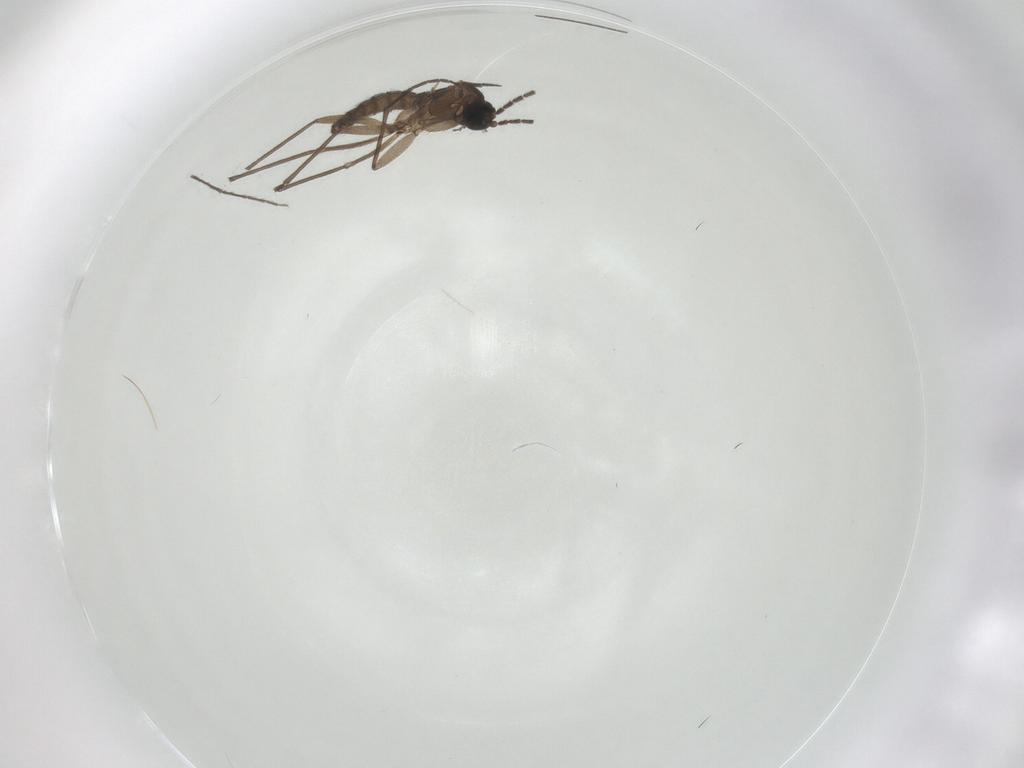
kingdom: Animalia
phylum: Arthropoda
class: Insecta
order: Diptera
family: Sciaridae
